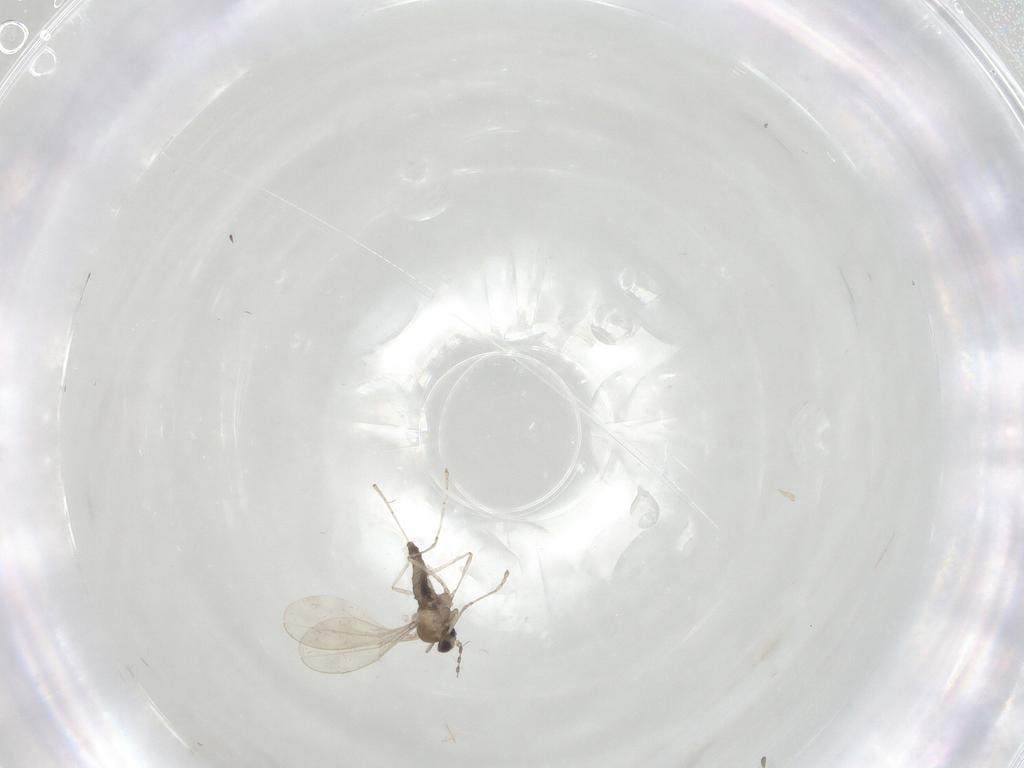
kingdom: Animalia
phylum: Arthropoda
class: Insecta
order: Diptera
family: Cecidomyiidae
